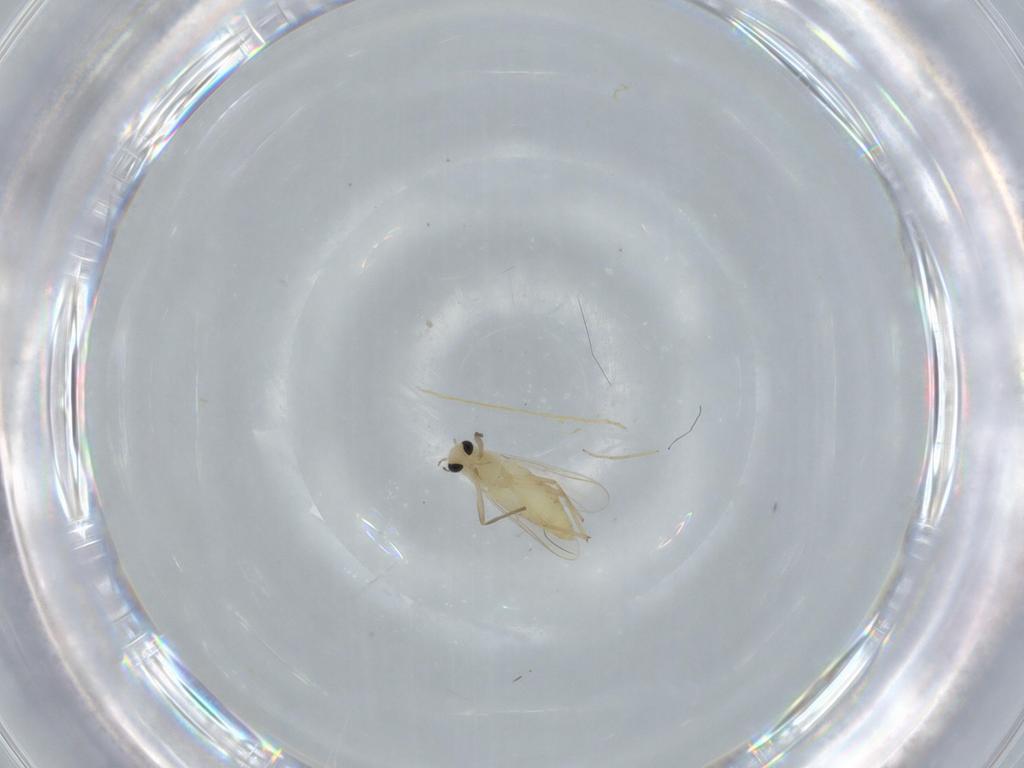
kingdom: Animalia
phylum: Arthropoda
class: Insecta
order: Diptera
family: Chironomidae
